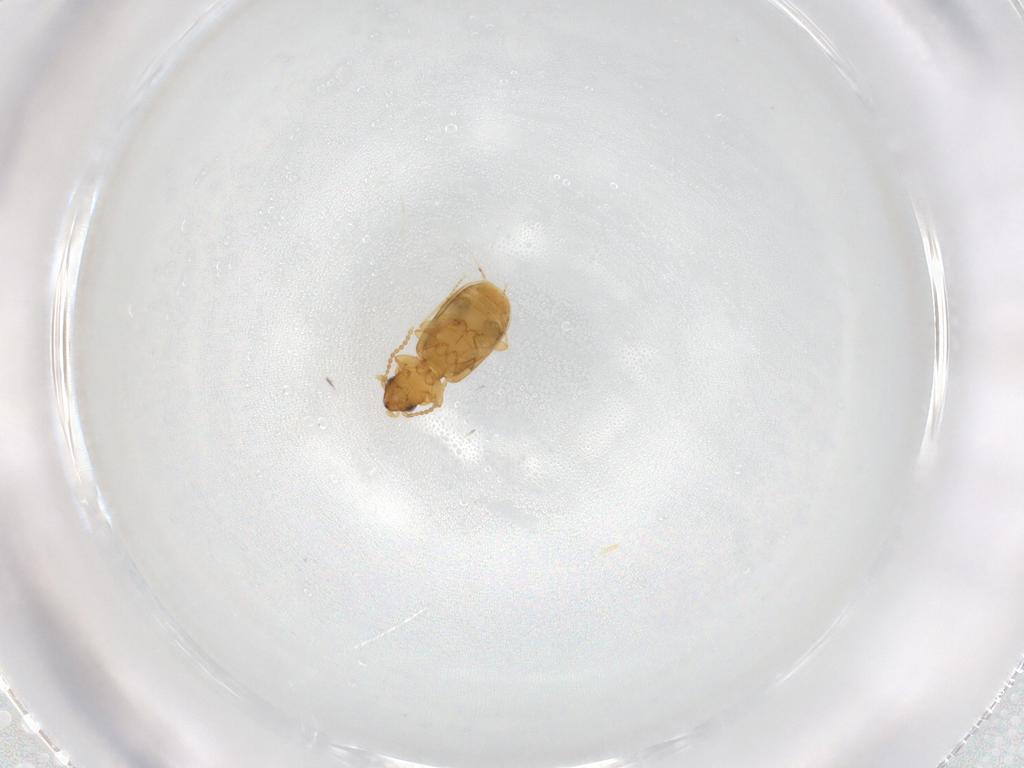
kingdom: Animalia
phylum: Arthropoda
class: Insecta
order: Coleoptera
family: Carabidae
